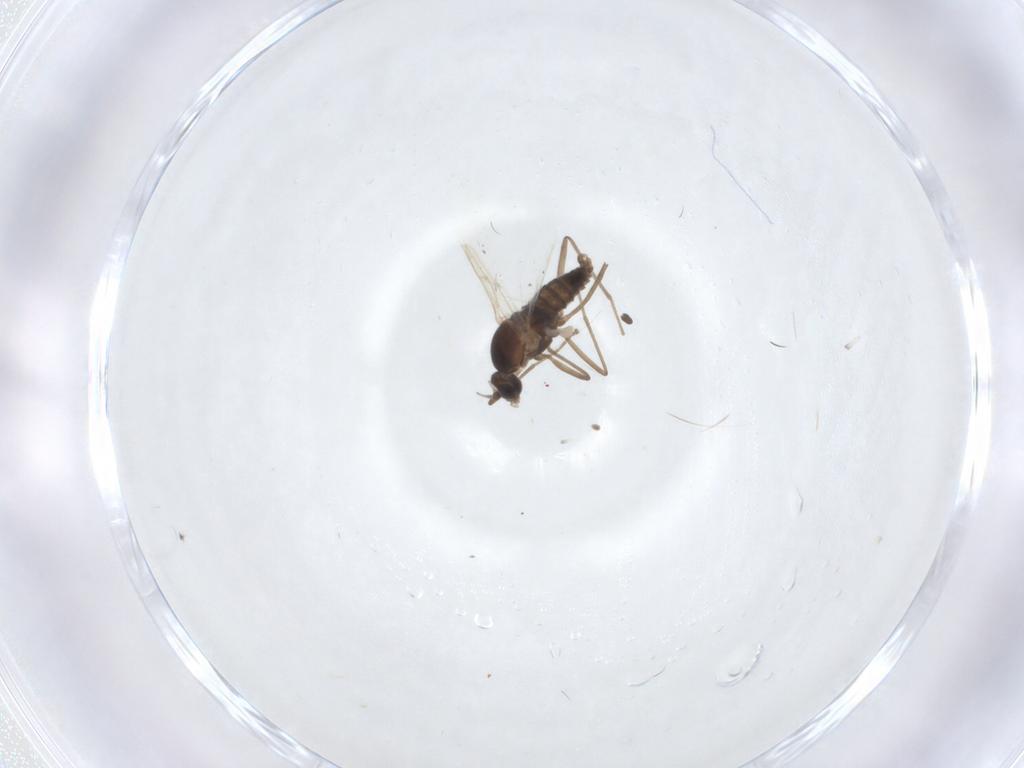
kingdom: Animalia
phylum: Arthropoda
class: Insecta
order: Diptera
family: Cecidomyiidae
